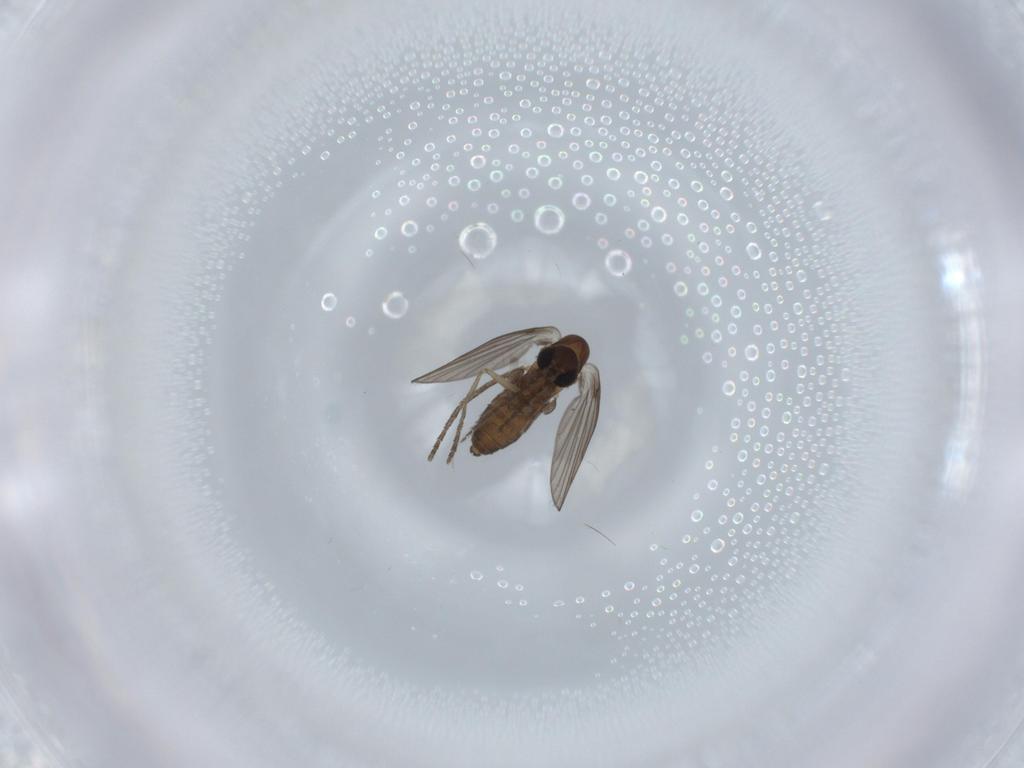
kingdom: Animalia
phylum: Arthropoda
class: Insecta
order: Diptera
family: Psychodidae
